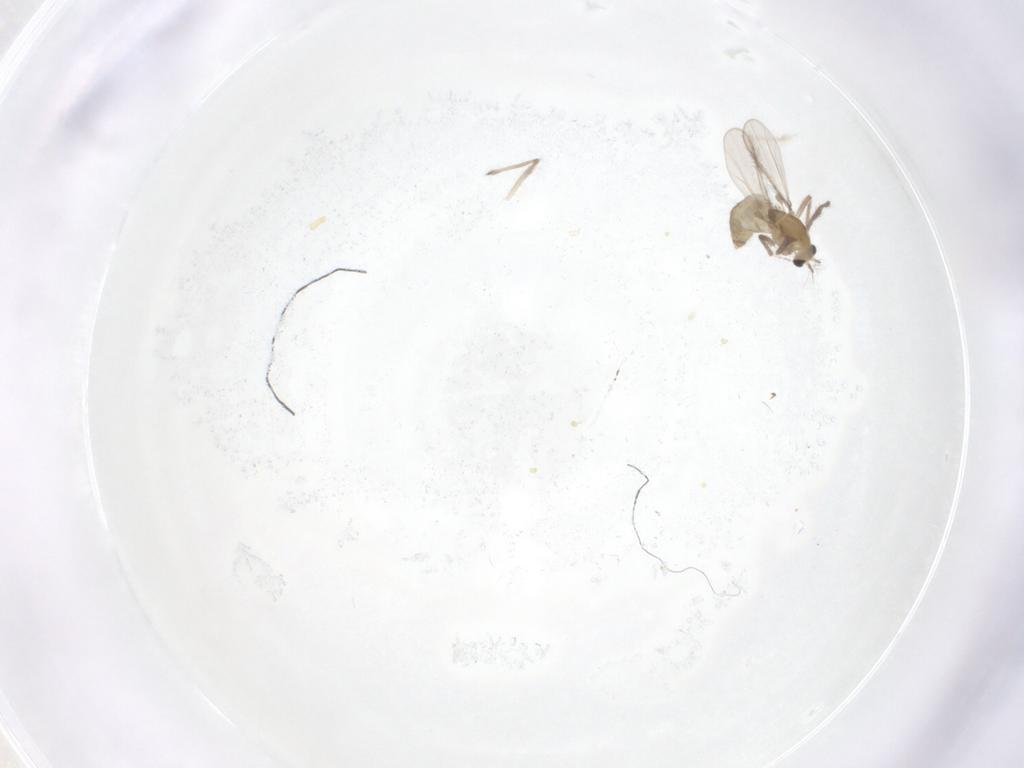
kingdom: Animalia
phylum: Arthropoda
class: Insecta
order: Diptera
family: Chironomidae
